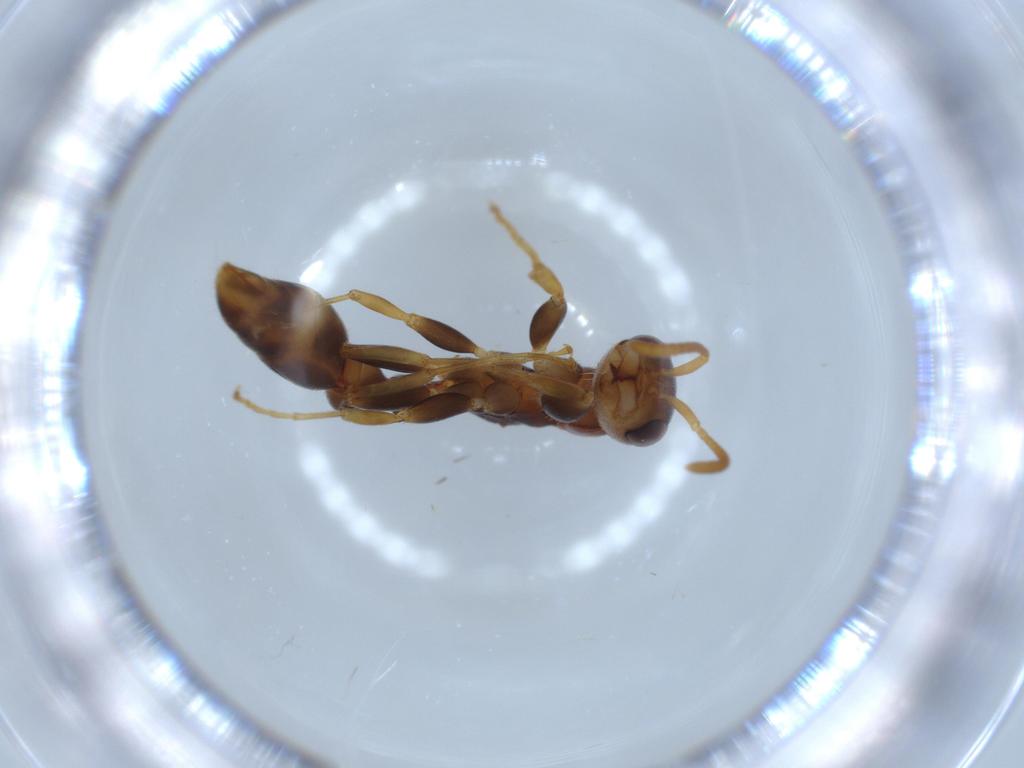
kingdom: Animalia
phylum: Arthropoda
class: Insecta
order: Hymenoptera
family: Formicidae
